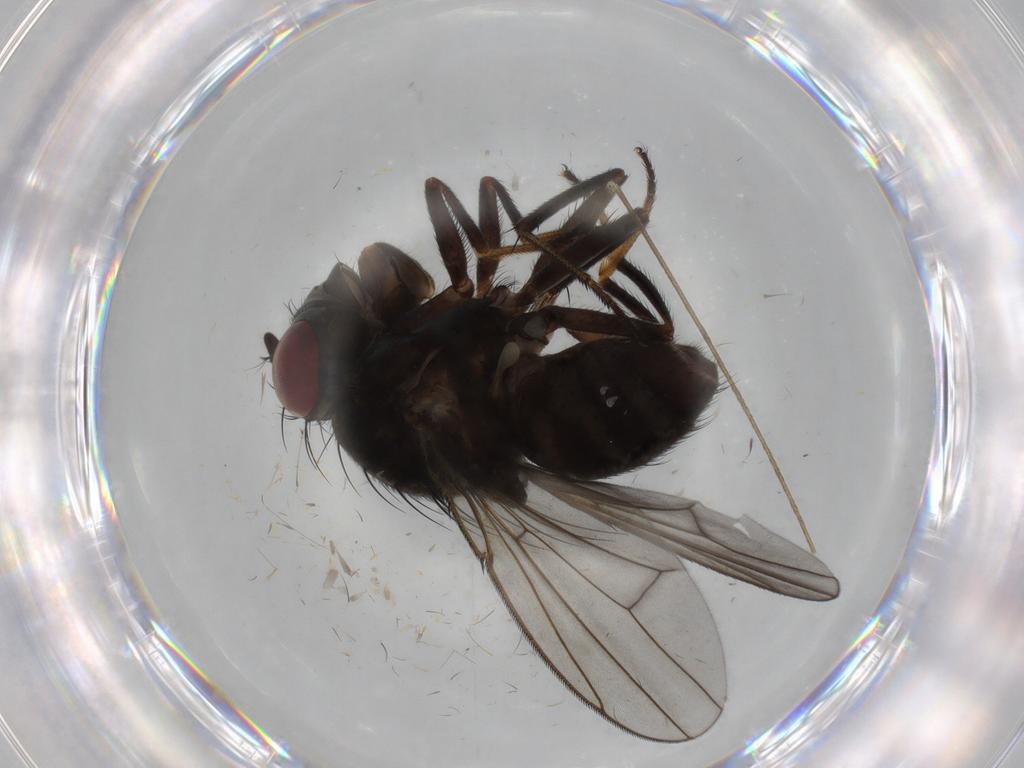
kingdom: Animalia
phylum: Arthropoda
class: Insecta
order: Diptera
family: Ephydridae
